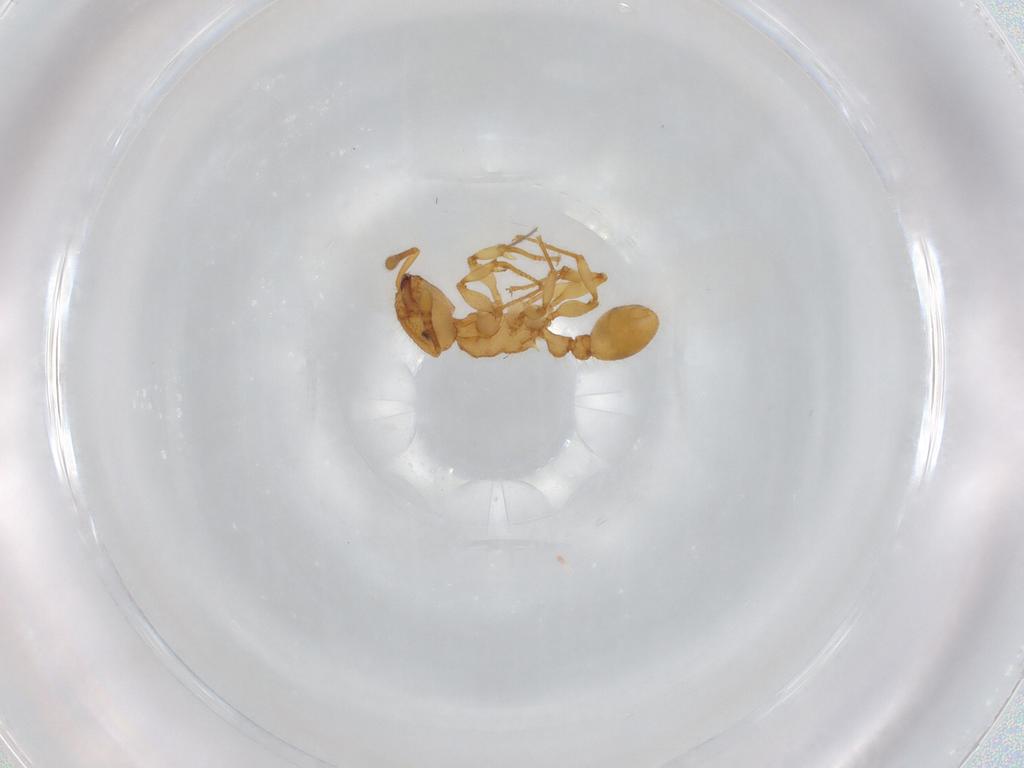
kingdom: Animalia
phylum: Arthropoda
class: Insecta
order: Hymenoptera
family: Formicidae
